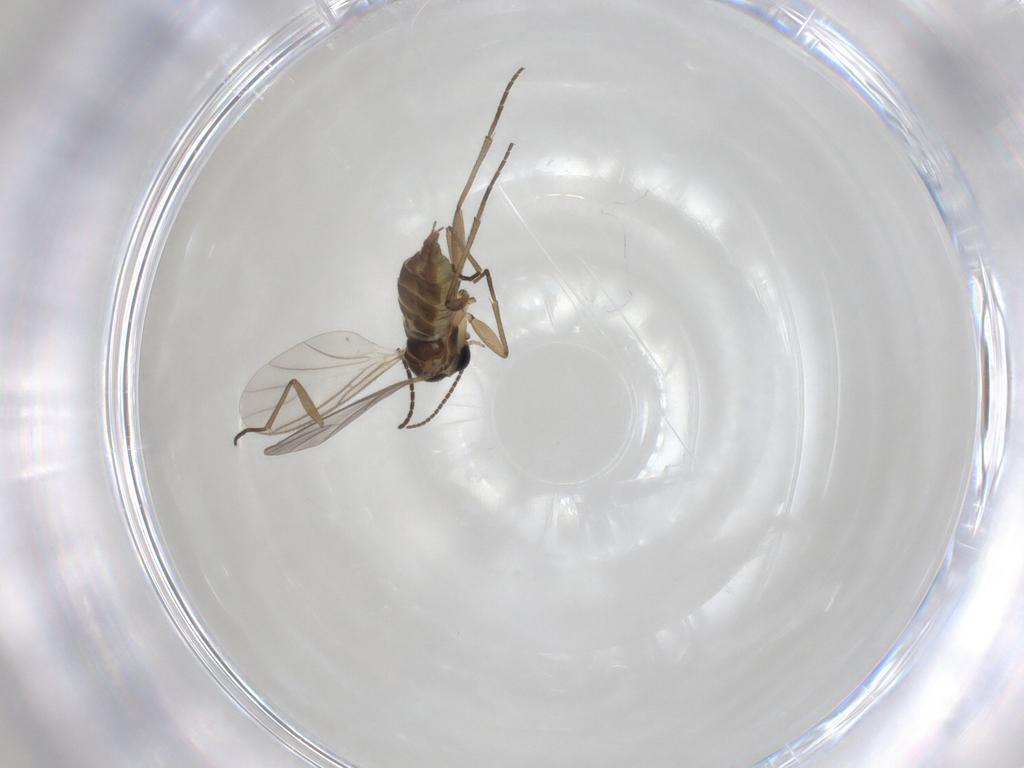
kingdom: Animalia
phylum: Arthropoda
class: Insecta
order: Diptera
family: Sciaridae
